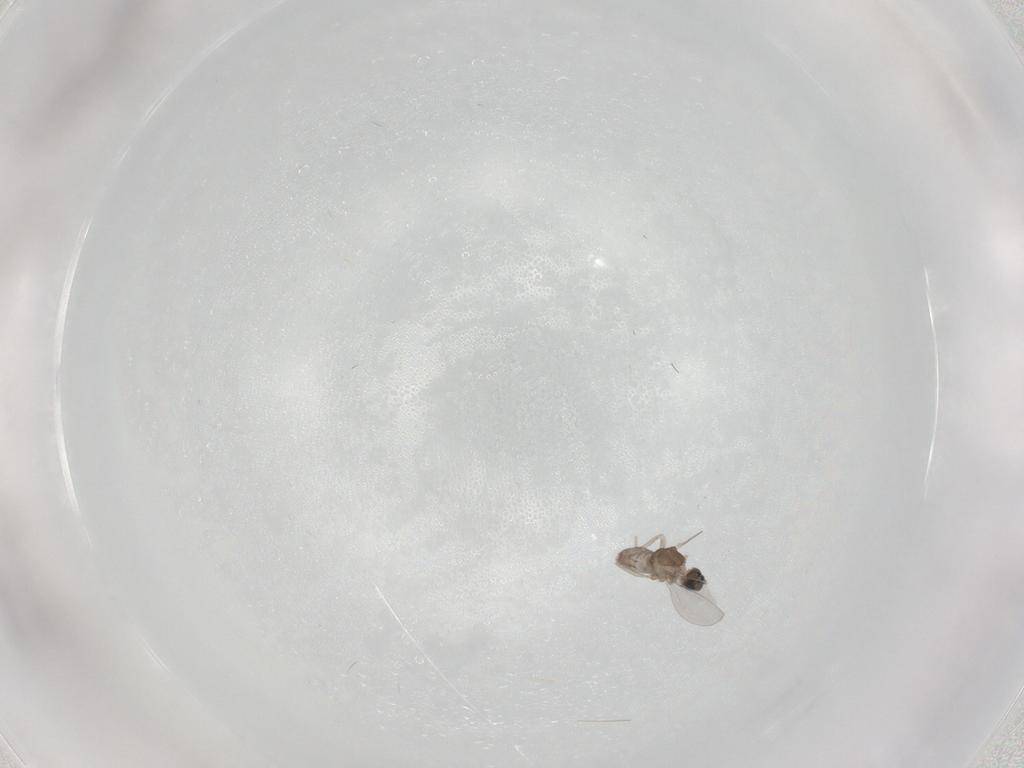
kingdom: Animalia
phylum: Arthropoda
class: Insecta
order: Diptera
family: Cecidomyiidae
